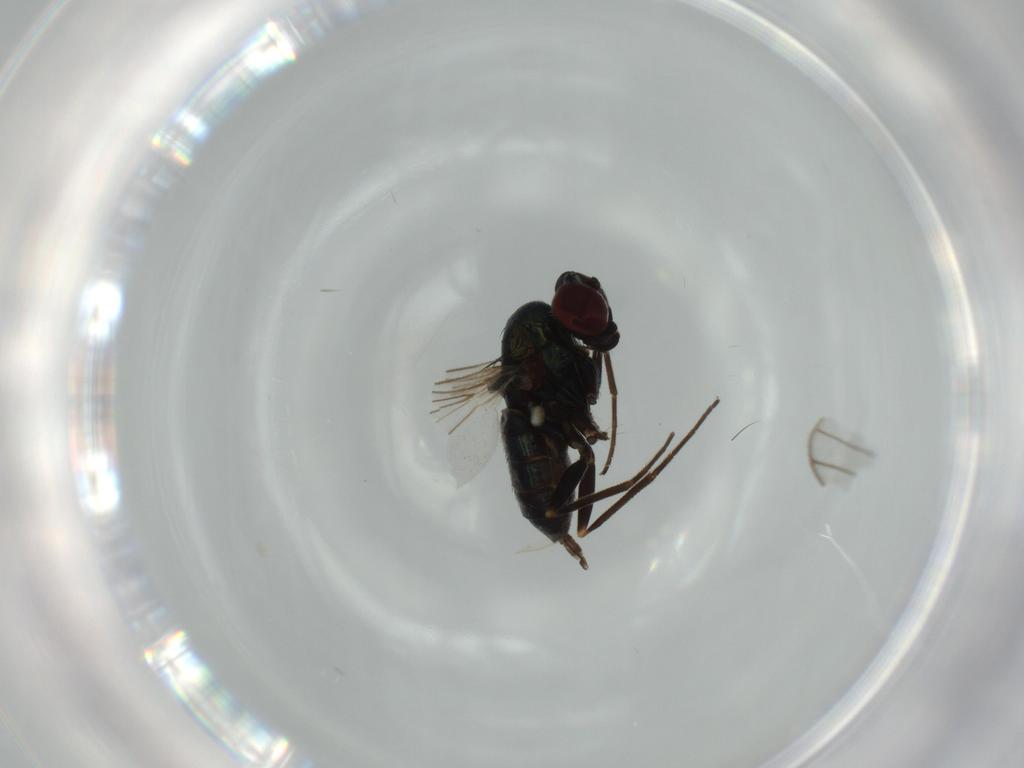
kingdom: Animalia
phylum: Arthropoda
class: Insecta
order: Diptera
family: Dolichopodidae
